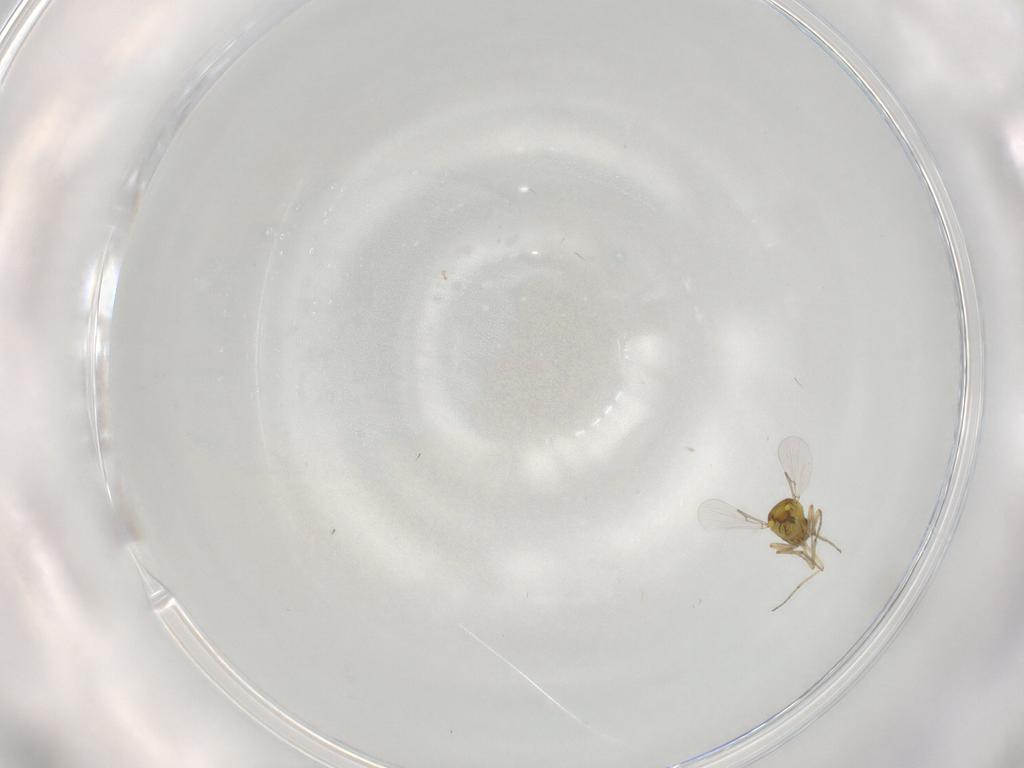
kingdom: Animalia
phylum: Arthropoda
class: Insecta
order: Diptera
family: Ceratopogonidae
